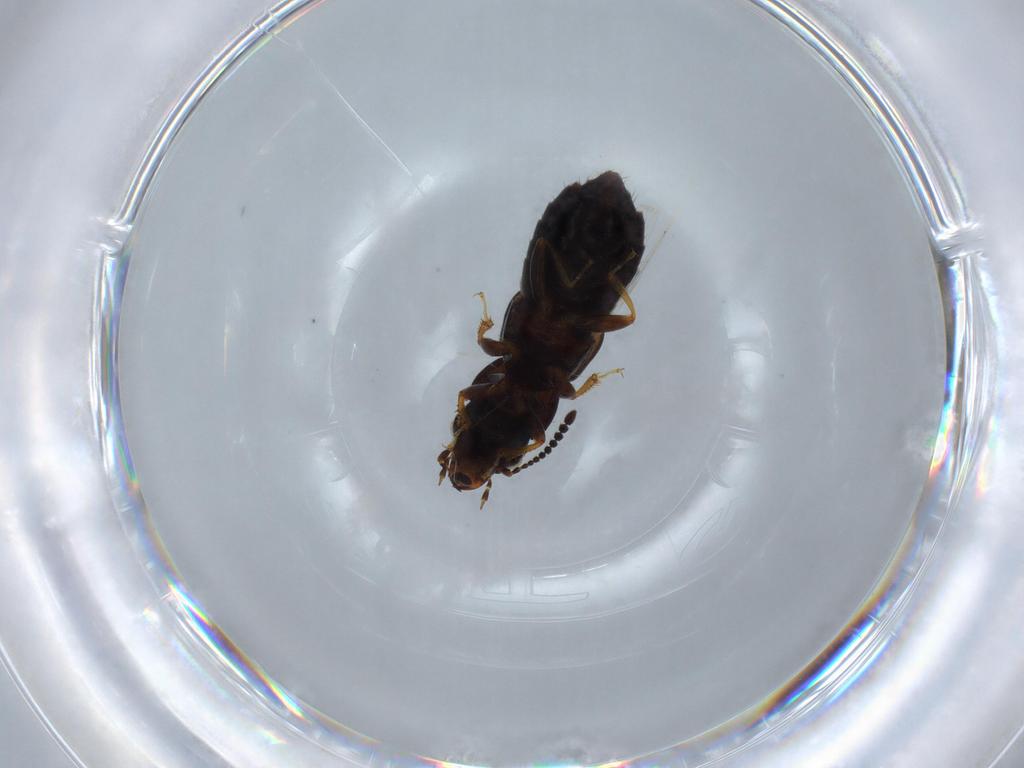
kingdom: Animalia
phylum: Arthropoda
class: Insecta
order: Coleoptera
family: Staphylinidae
